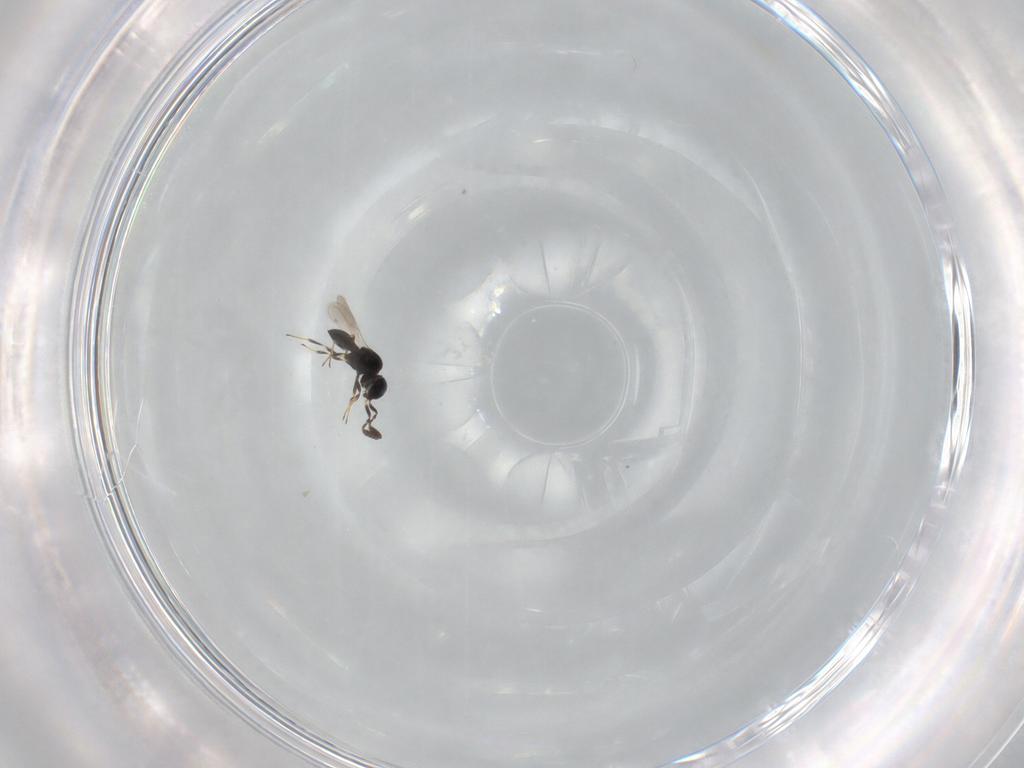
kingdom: Animalia
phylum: Arthropoda
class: Insecta
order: Hymenoptera
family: Scelionidae
